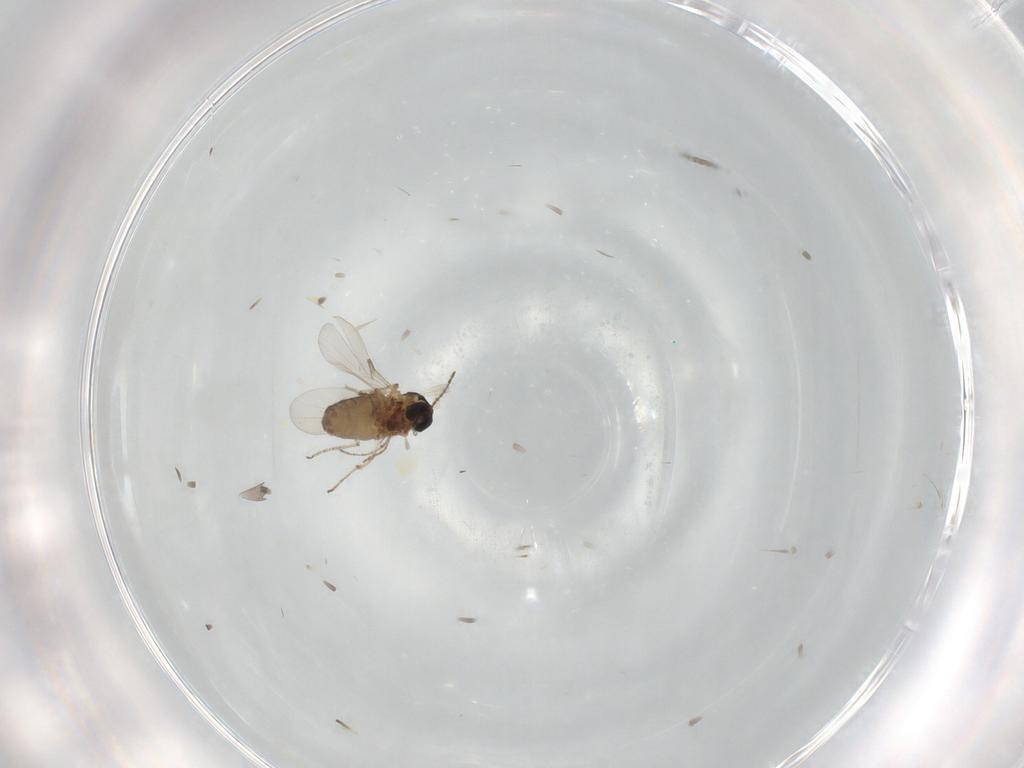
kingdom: Animalia
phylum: Arthropoda
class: Insecta
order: Diptera
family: Ceratopogonidae
